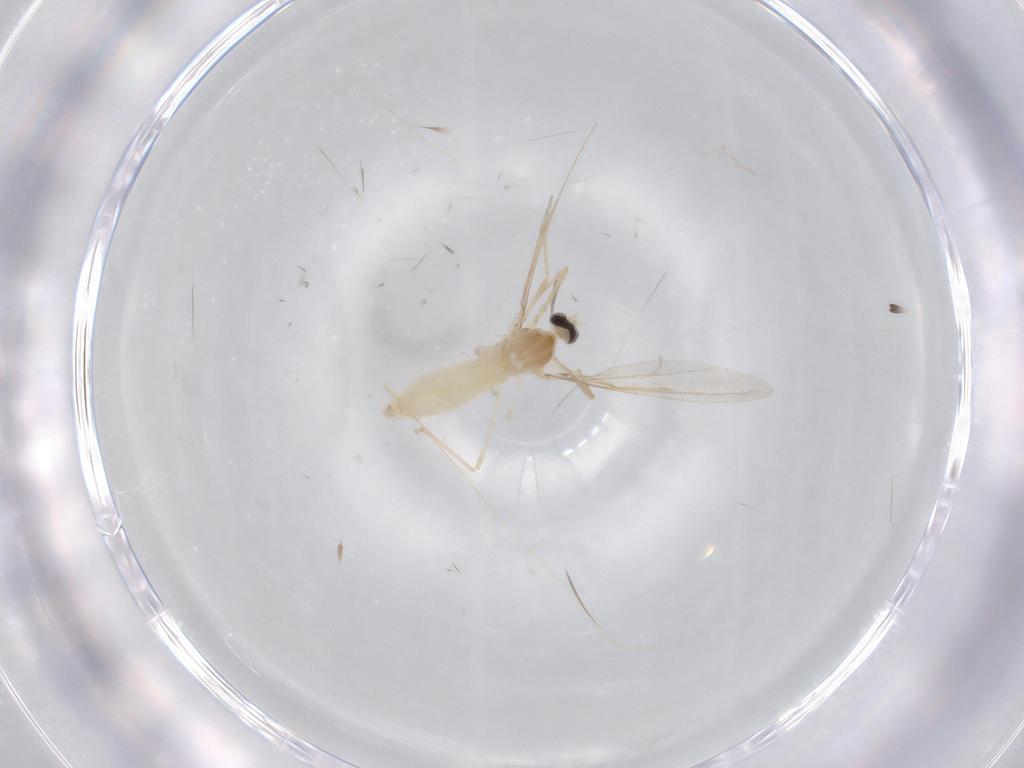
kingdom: Animalia
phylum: Arthropoda
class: Insecta
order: Diptera
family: Cecidomyiidae
